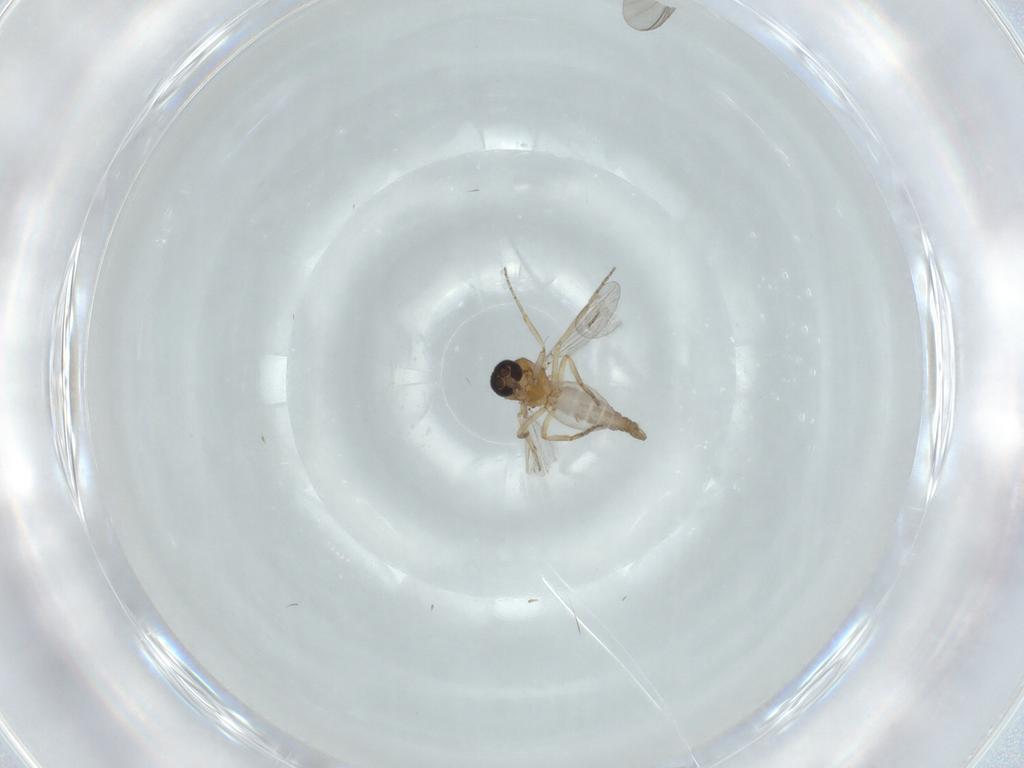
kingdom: Animalia
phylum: Arthropoda
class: Insecta
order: Diptera
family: Ceratopogonidae
